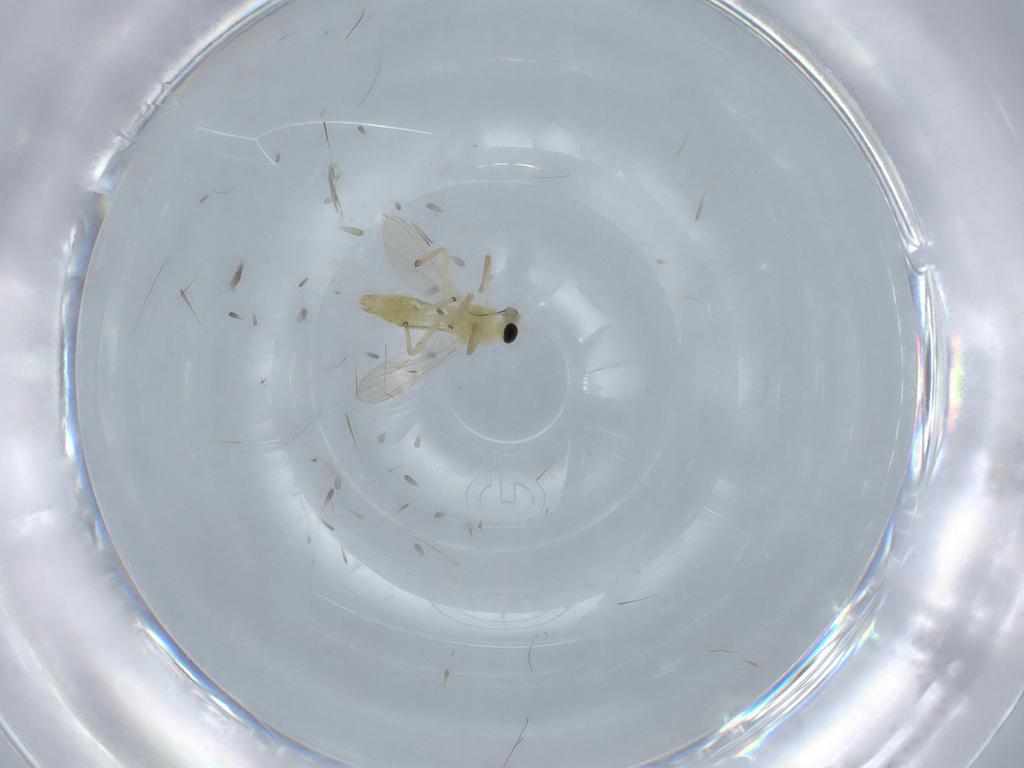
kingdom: Animalia
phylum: Arthropoda
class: Insecta
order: Diptera
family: Chironomidae
